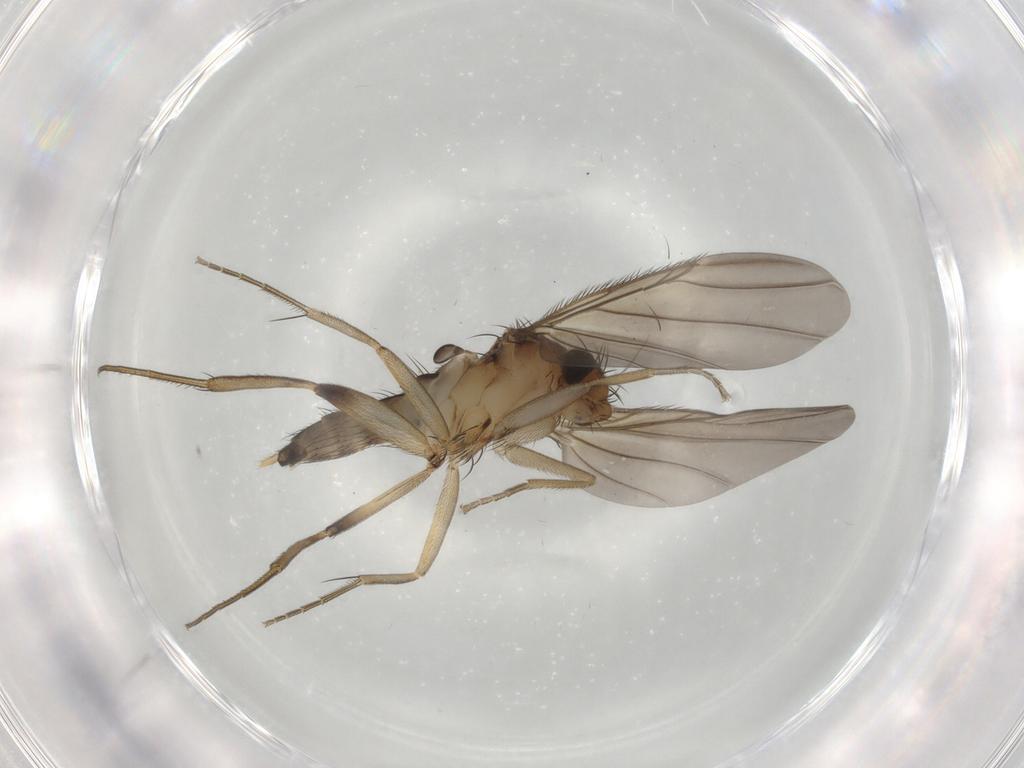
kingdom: Animalia
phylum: Arthropoda
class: Insecta
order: Diptera
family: Phoridae
